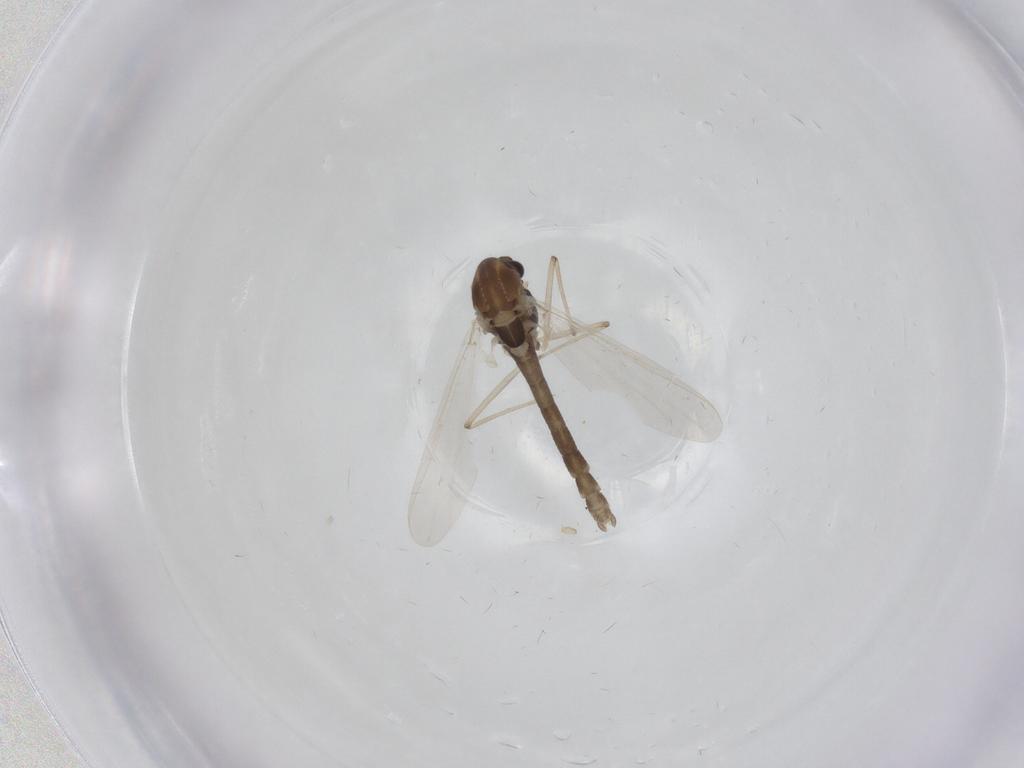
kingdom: Animalia
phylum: Arthropoda
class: Insecta
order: Diptera
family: Chironomidae
